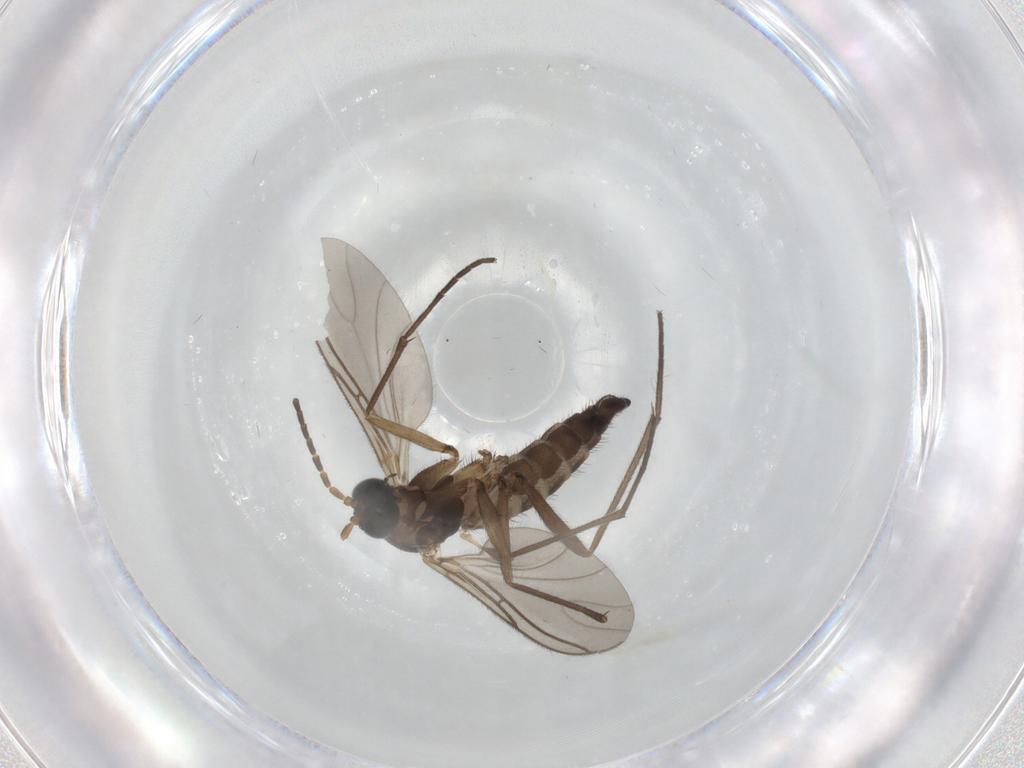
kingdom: Animalia
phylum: Arthropoda
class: Insecta
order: Diptera
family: Sciaridae
